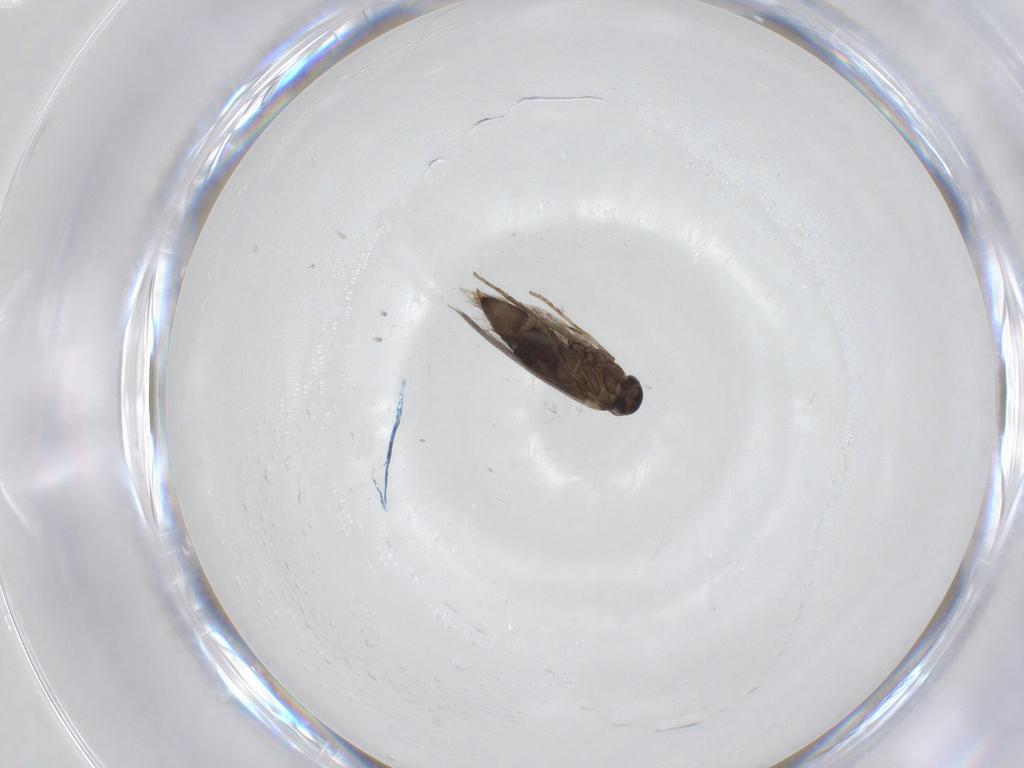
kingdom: Animalia
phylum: Arthropoda
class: Insecta
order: Lepidoptera
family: Heliozelidae
